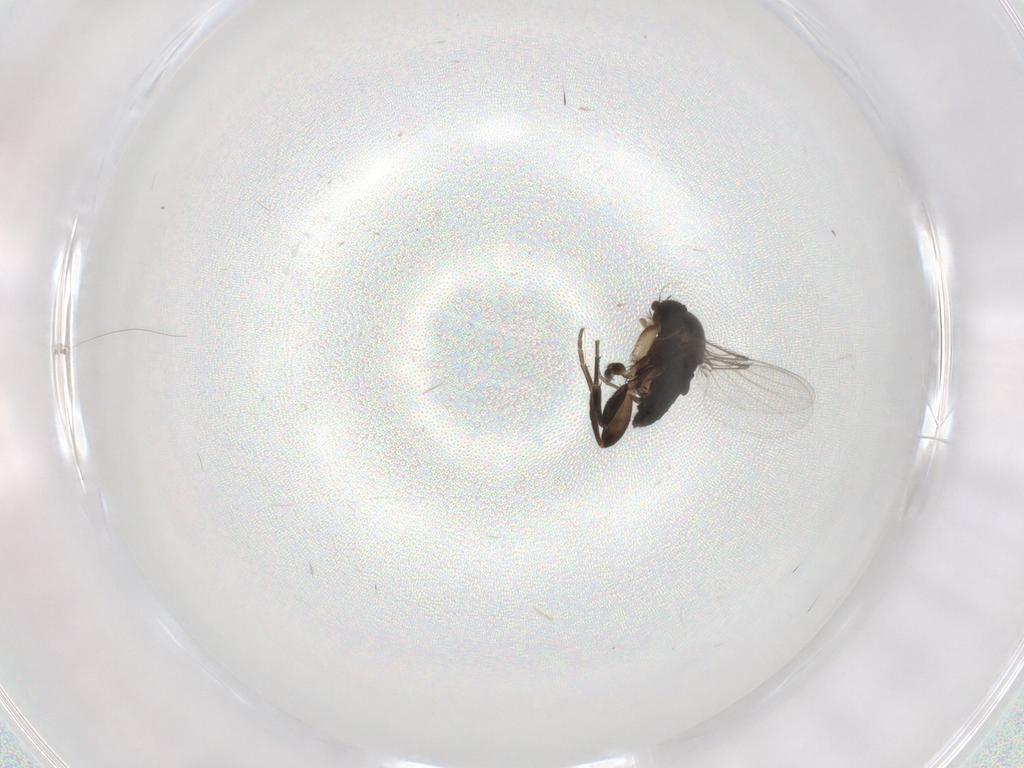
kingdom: Animalia
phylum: Arthropoda
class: Insecta
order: Diptera
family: Phoridae
